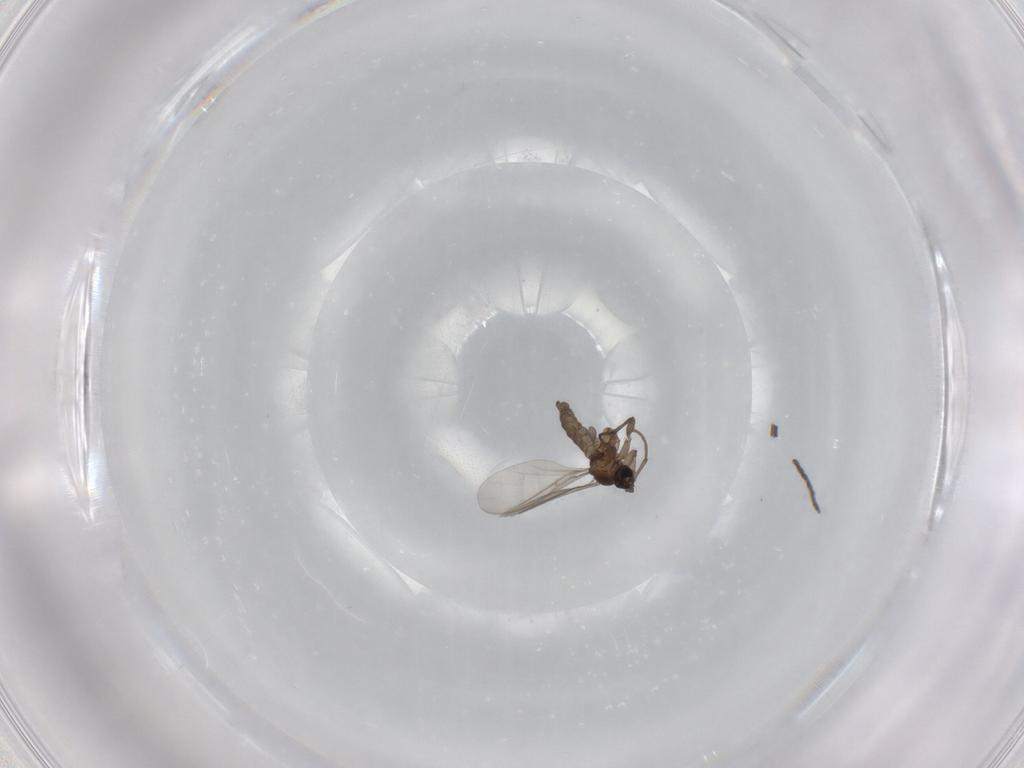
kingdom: Animalia
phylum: Arthropoda
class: Insecta
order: Diptera
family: Sciaridae
